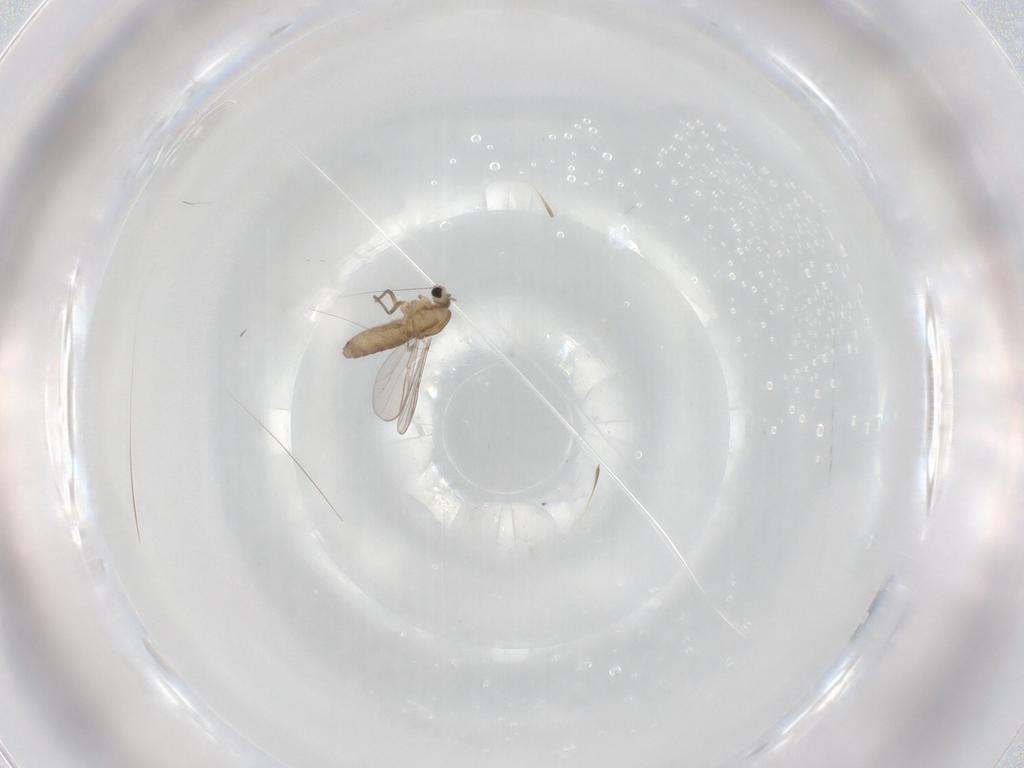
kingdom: Animalia
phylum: Arthropoda
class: Insecta
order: Diptera
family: Chironomidae
